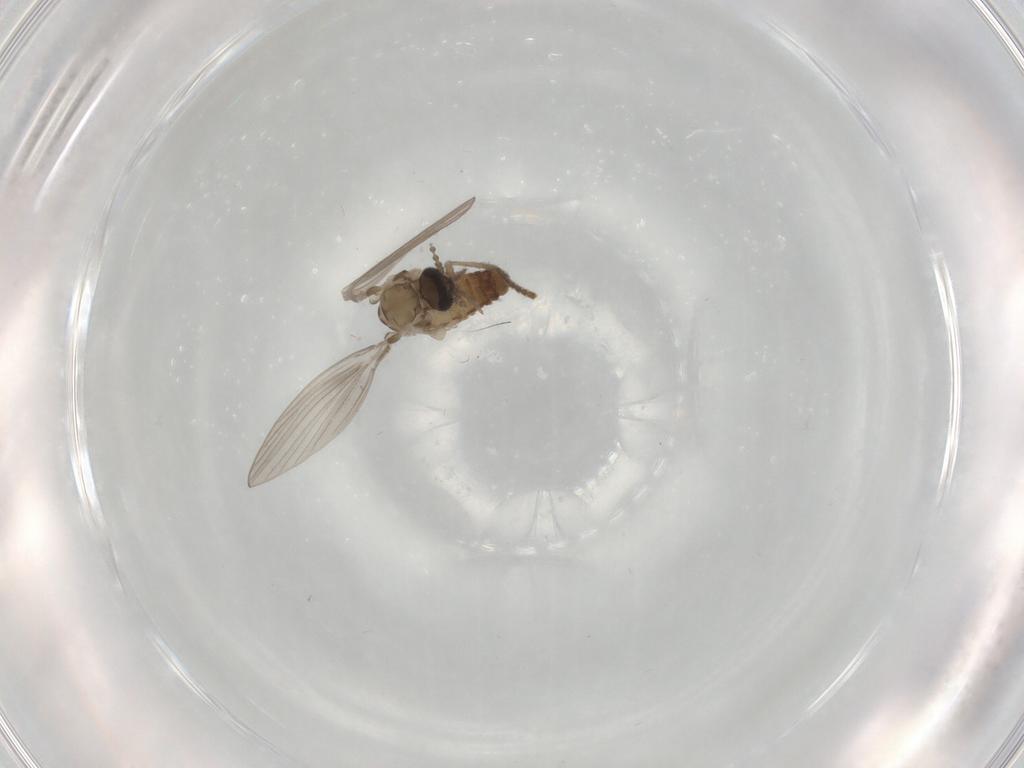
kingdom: Animalia
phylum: Arthropoda
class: Insecta
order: Diptera
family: Psychodidae
